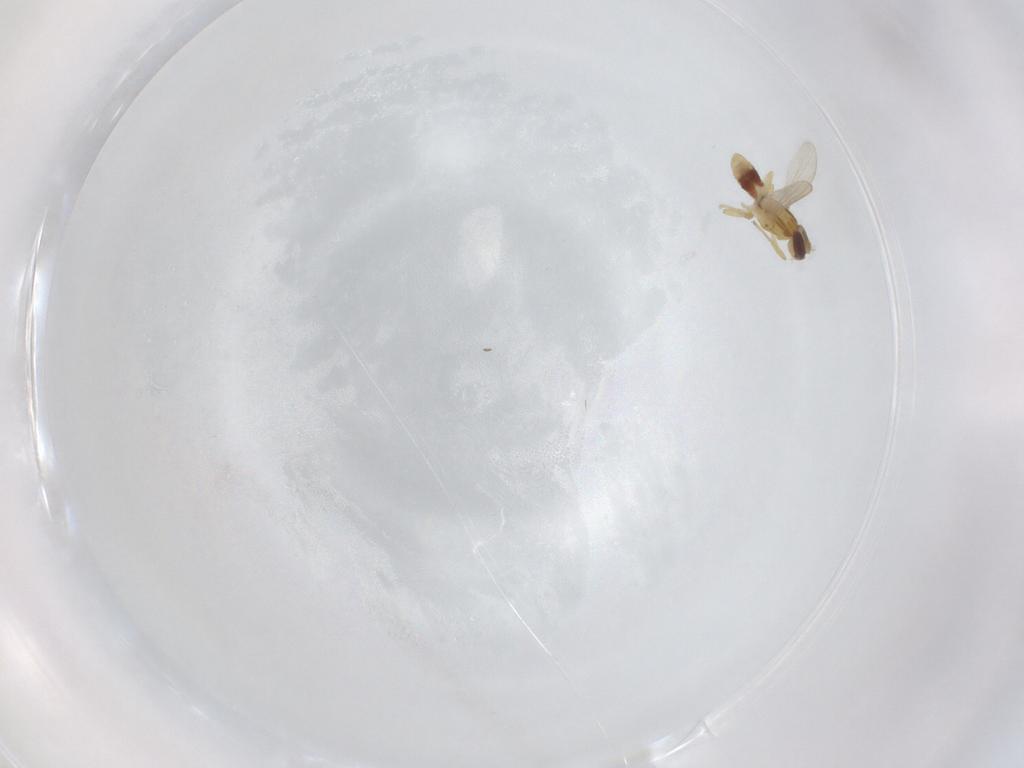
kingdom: Animalia
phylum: Arthropoda
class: Insecta
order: Diptera
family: Periscelididae
